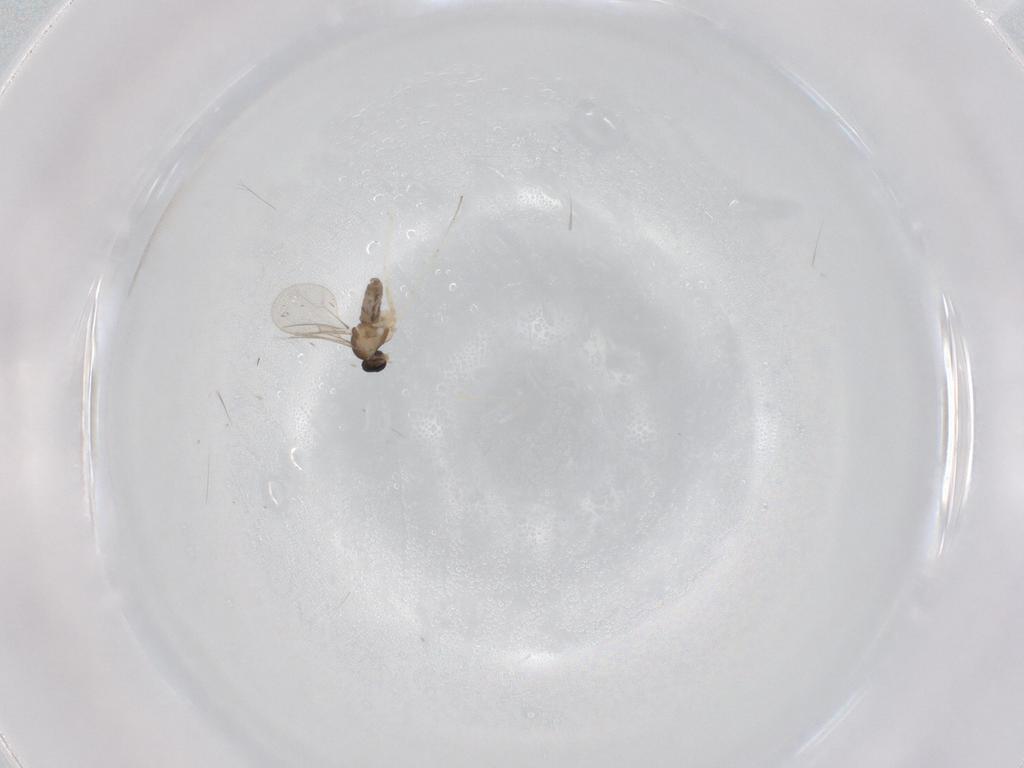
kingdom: Animalia
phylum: Arthropoda
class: Insecta
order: Diptera
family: Cecidomyiidae
